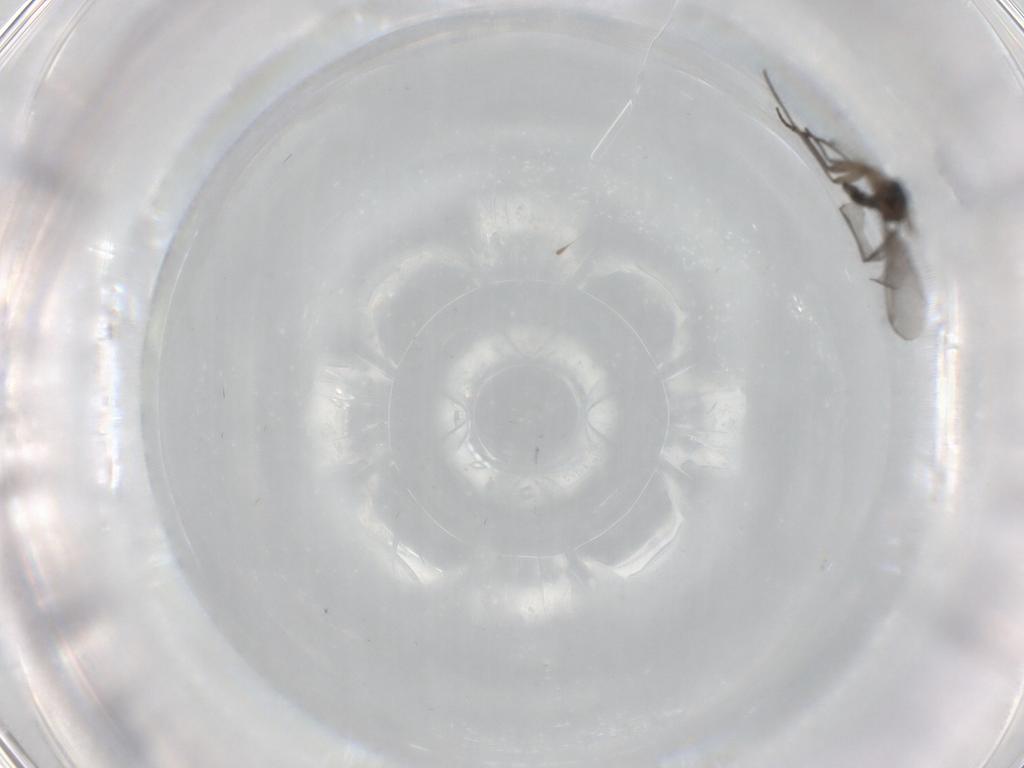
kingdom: Animalia
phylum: Arthropoda
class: Insecta
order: Diptera
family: Sciaridae
